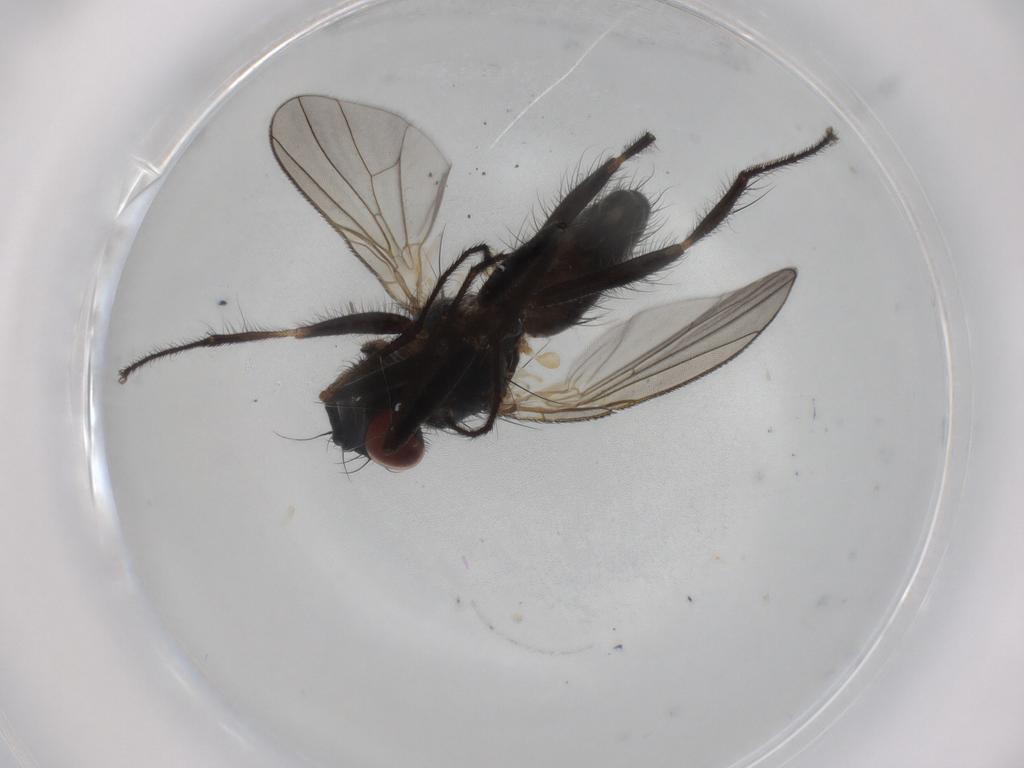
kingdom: Animalia
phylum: Arthropoda
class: Insecta
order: Diptera
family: Muscidae
